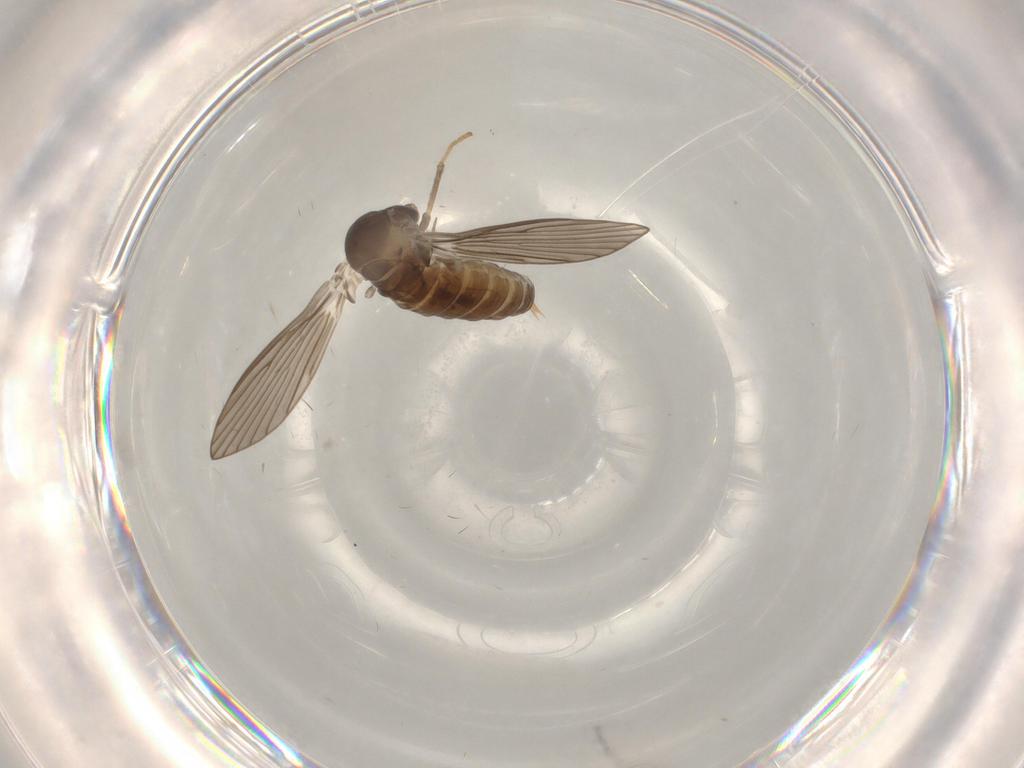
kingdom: Animalia
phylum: Arthropoda
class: Insecta
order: Diptera
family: Psychodidae
